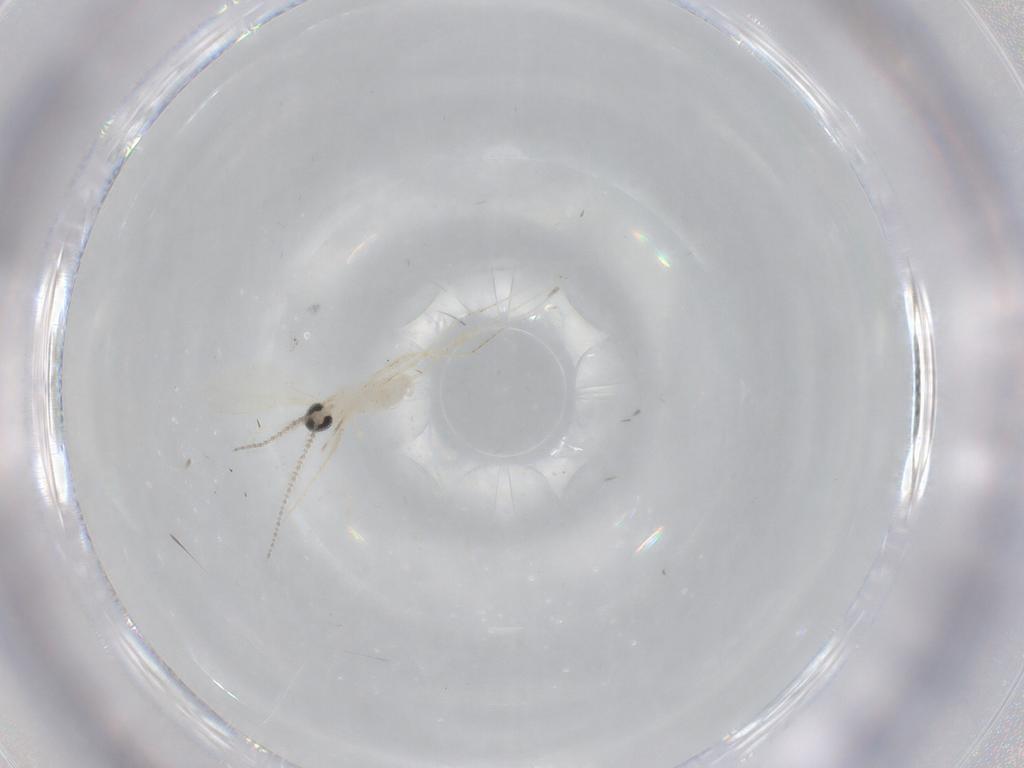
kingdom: Animalia
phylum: Arthropoda
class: Insecta
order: Diptera
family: Cecidomyiidae
